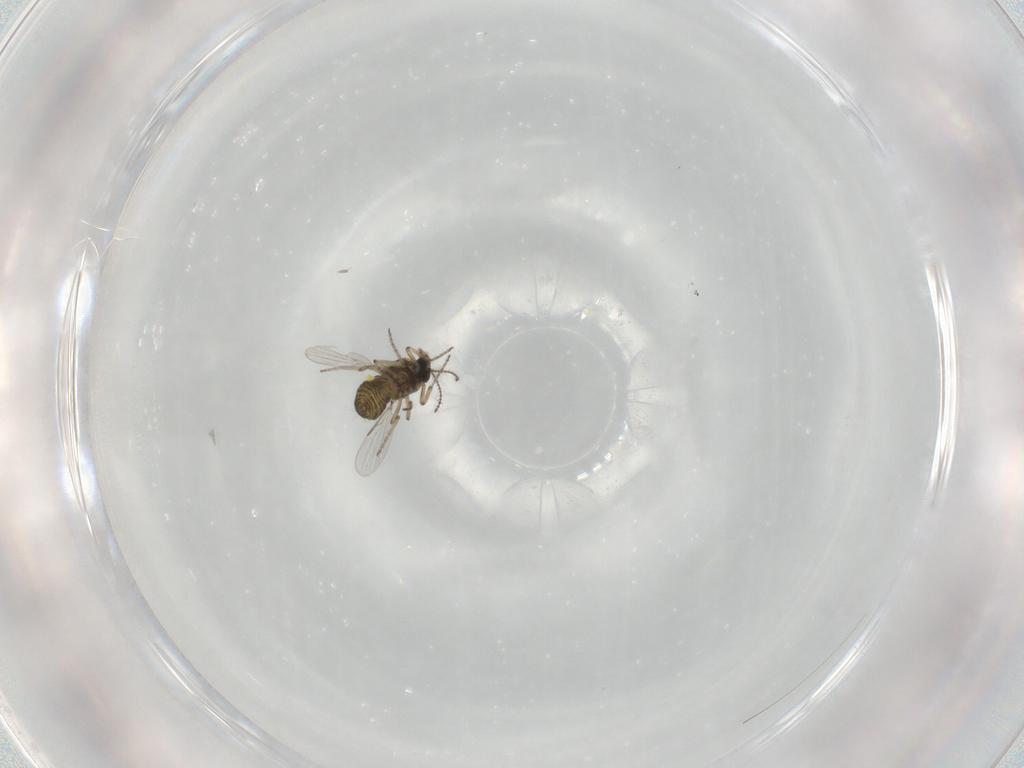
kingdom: Animalia
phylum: Arthropoda
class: Insecta
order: Diptera
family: Ceratopogonidae
